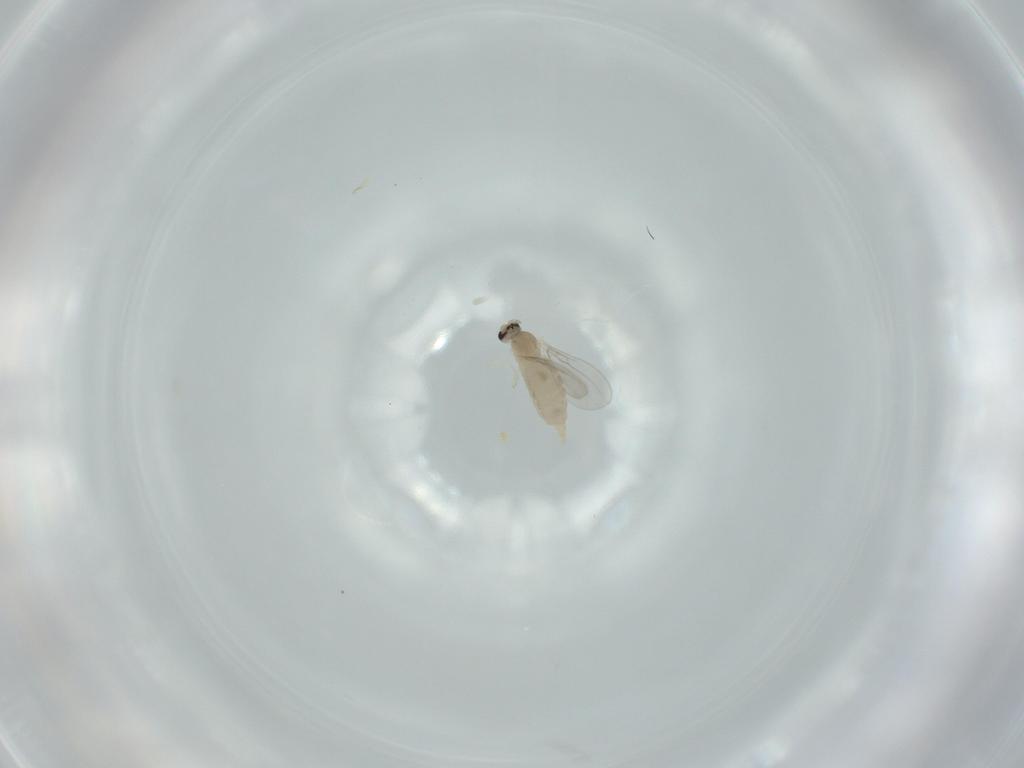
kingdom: Animalia
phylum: Arthropoda
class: Insecta
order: Diptera
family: Cecidomyiidae
